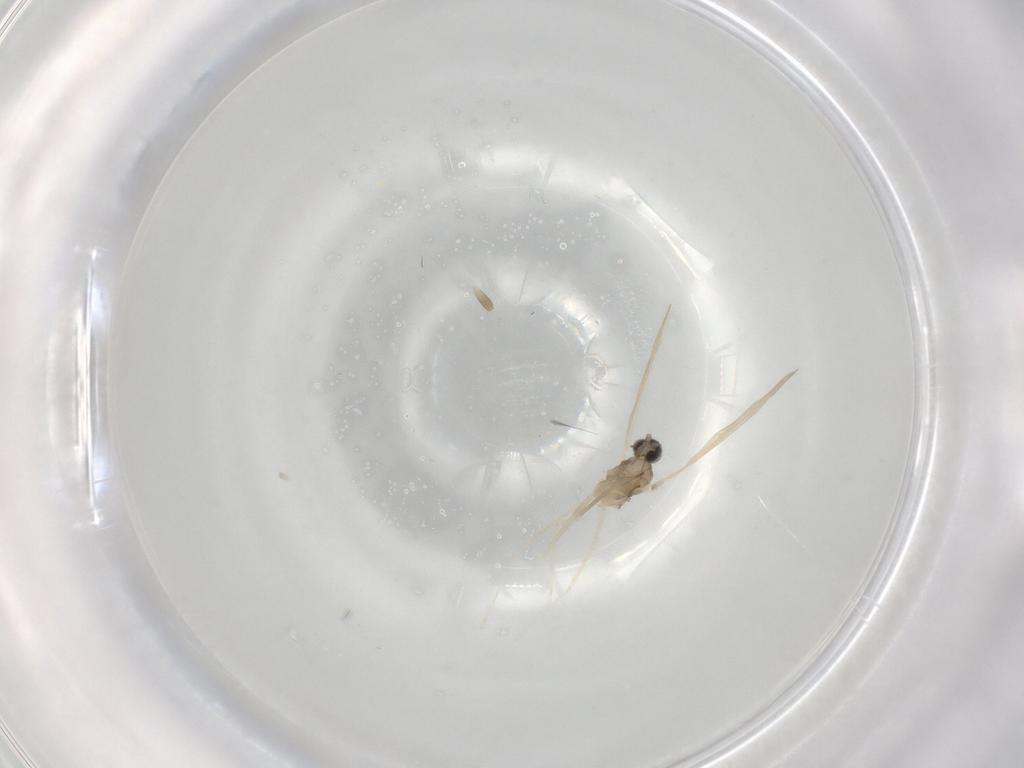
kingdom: Animalia
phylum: Arthropoda
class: Insecta
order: Diptera
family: Cecidomyiidae
